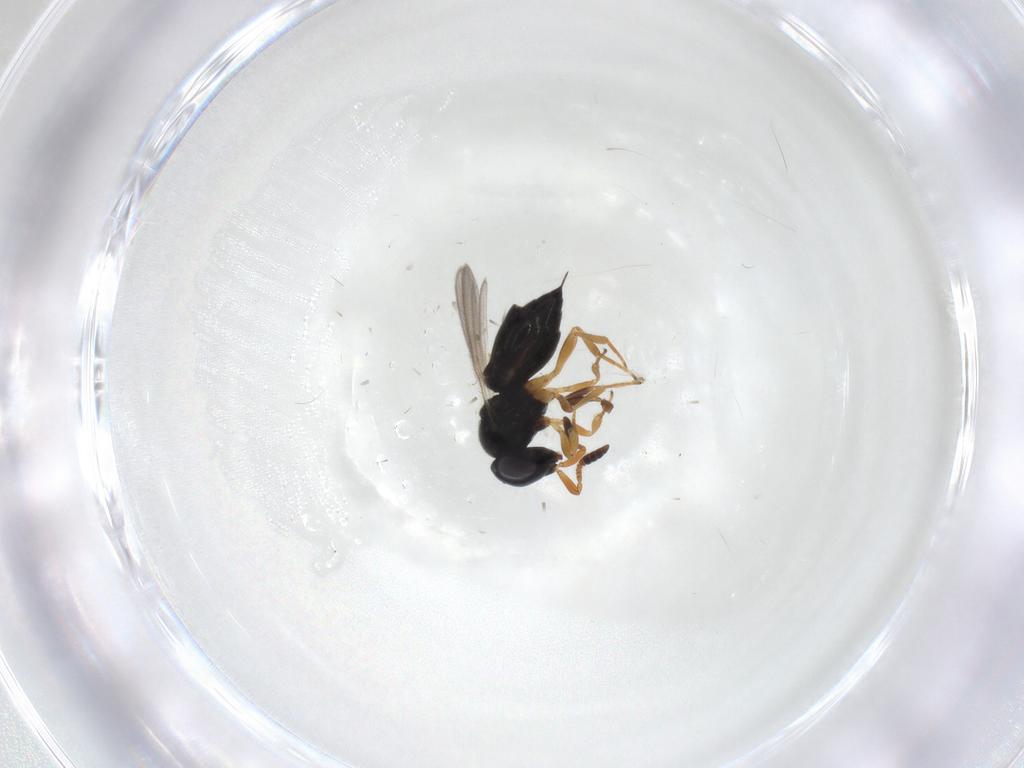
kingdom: Animalia
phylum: Arthropoda
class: Insecta
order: Hymenoptera
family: Scelionidae
